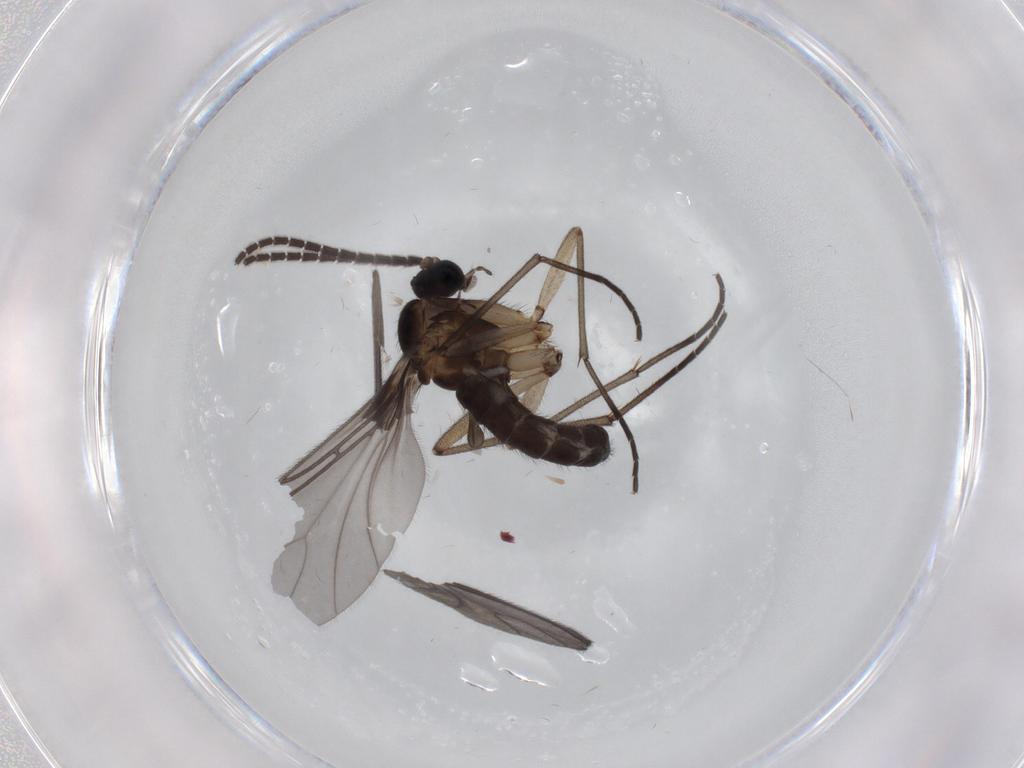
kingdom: Animalia
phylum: Arthropoda
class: Insecta
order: Diptera
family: Sciaridae
